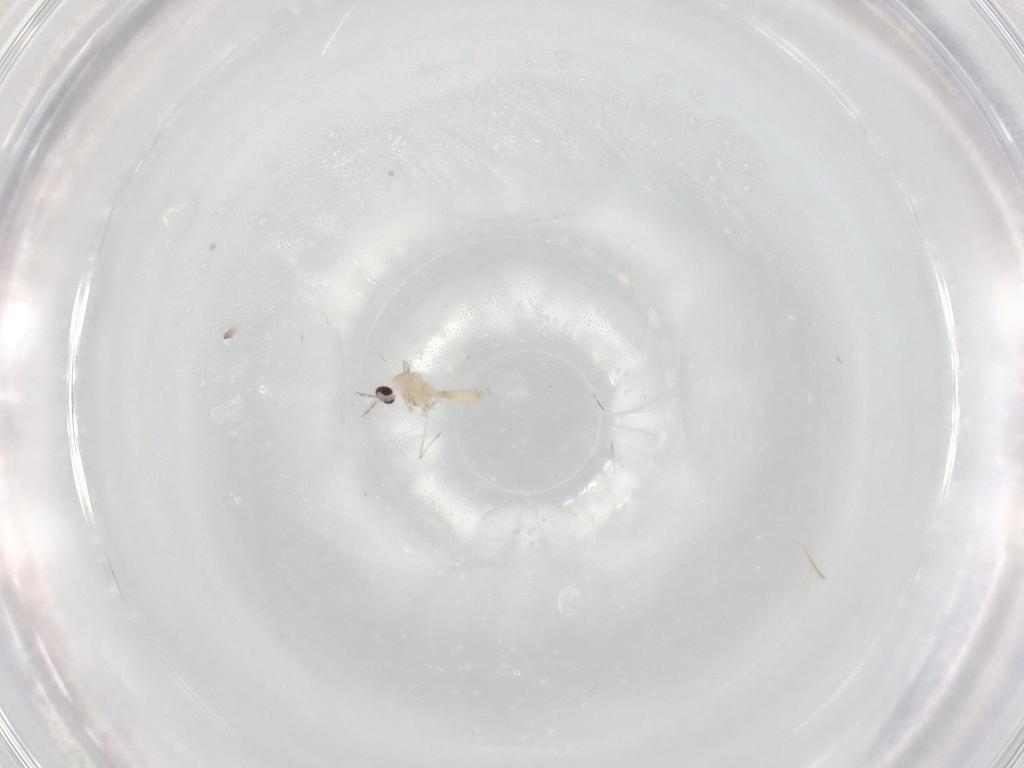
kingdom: Animalia
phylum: Arthropoda
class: Insecta
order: Diptera
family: Cecidomyiidae
